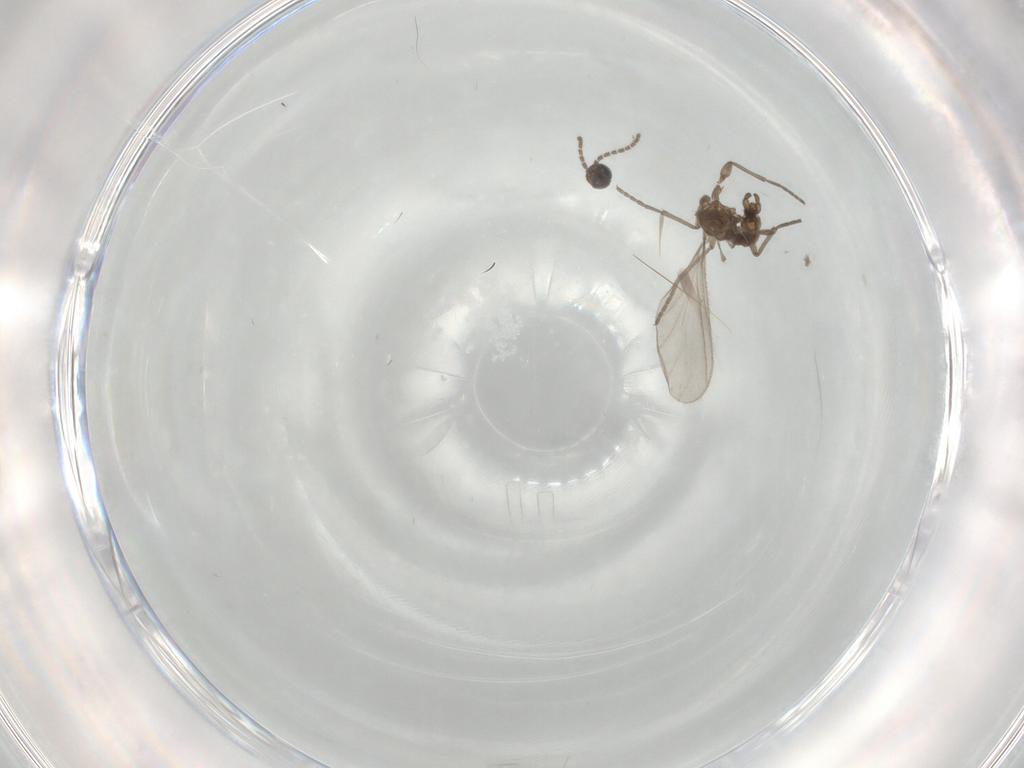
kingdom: Animalia
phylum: Arthropoda
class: Insecta
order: Diptera
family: Sciaridae
